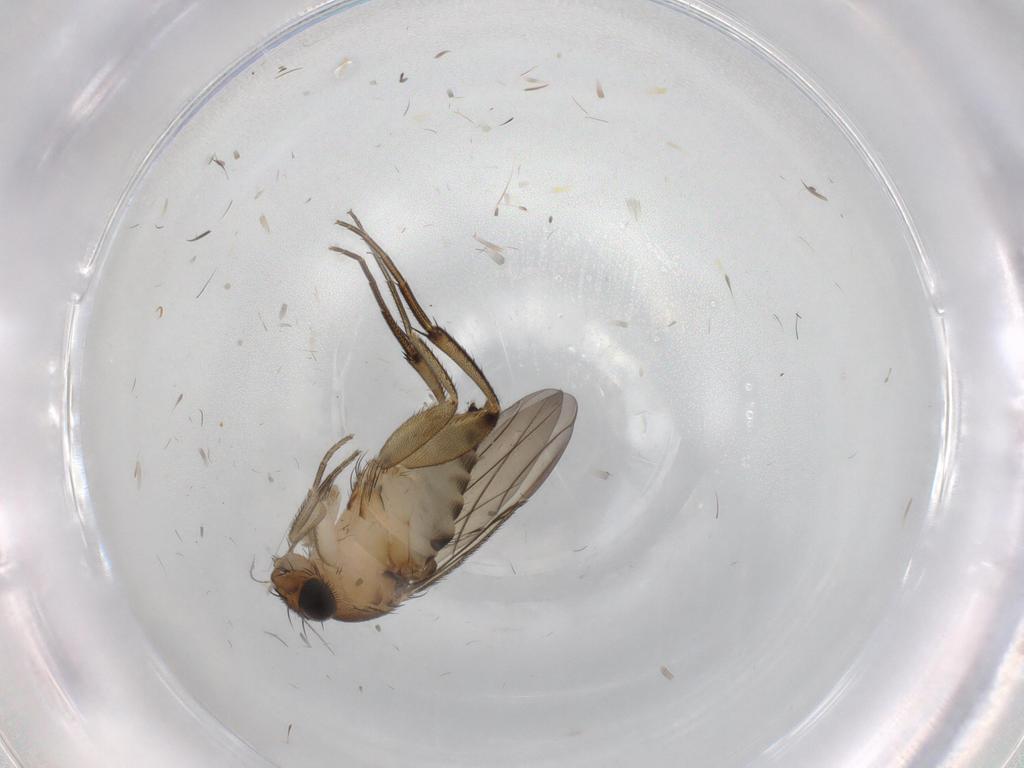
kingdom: Animalia
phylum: Arthropoda
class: Insecta
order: Diptera
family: Phoridae
